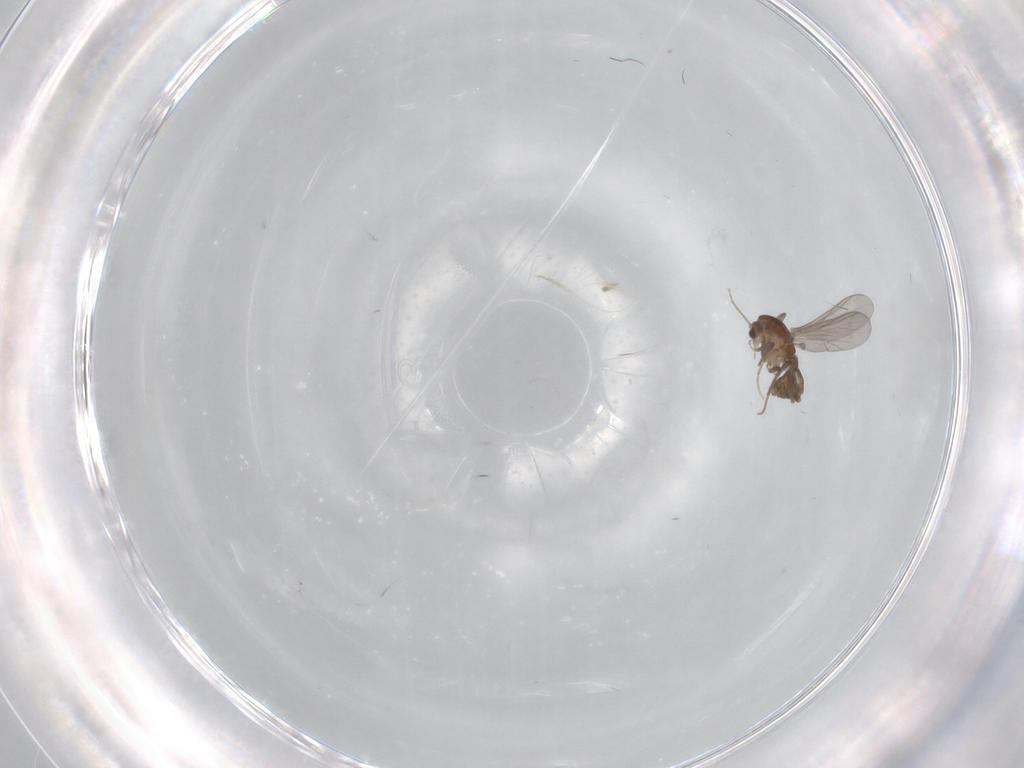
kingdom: Animalia
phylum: Arthropoda
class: Insecta
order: Diptera
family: Chironomidae
